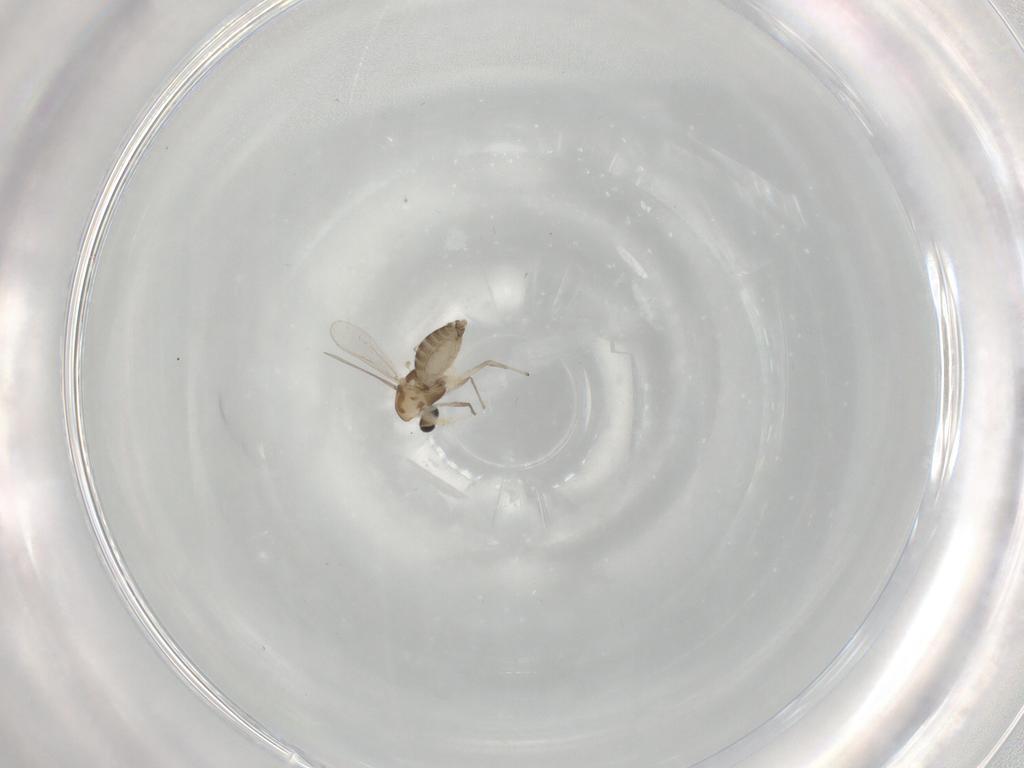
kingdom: Animalia
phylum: Arthropoda
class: Insecta
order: Diptera
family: Chironomidae
